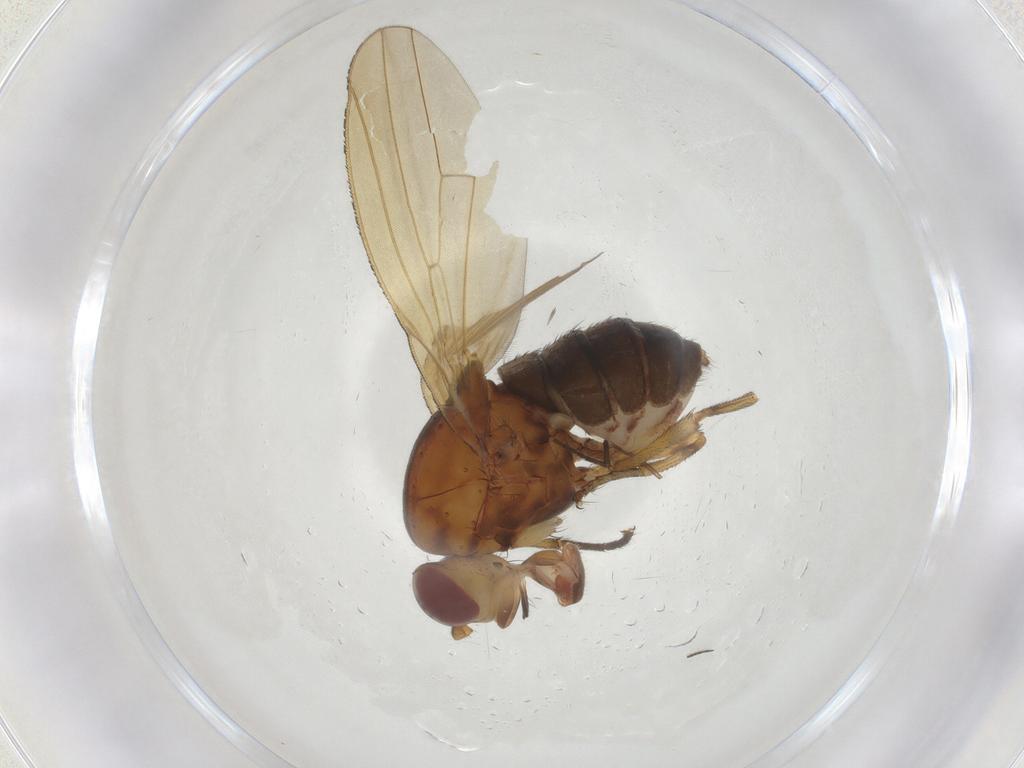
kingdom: Animalia
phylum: Arthropoda
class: Insecta
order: Diptera
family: Lauxaniidae
